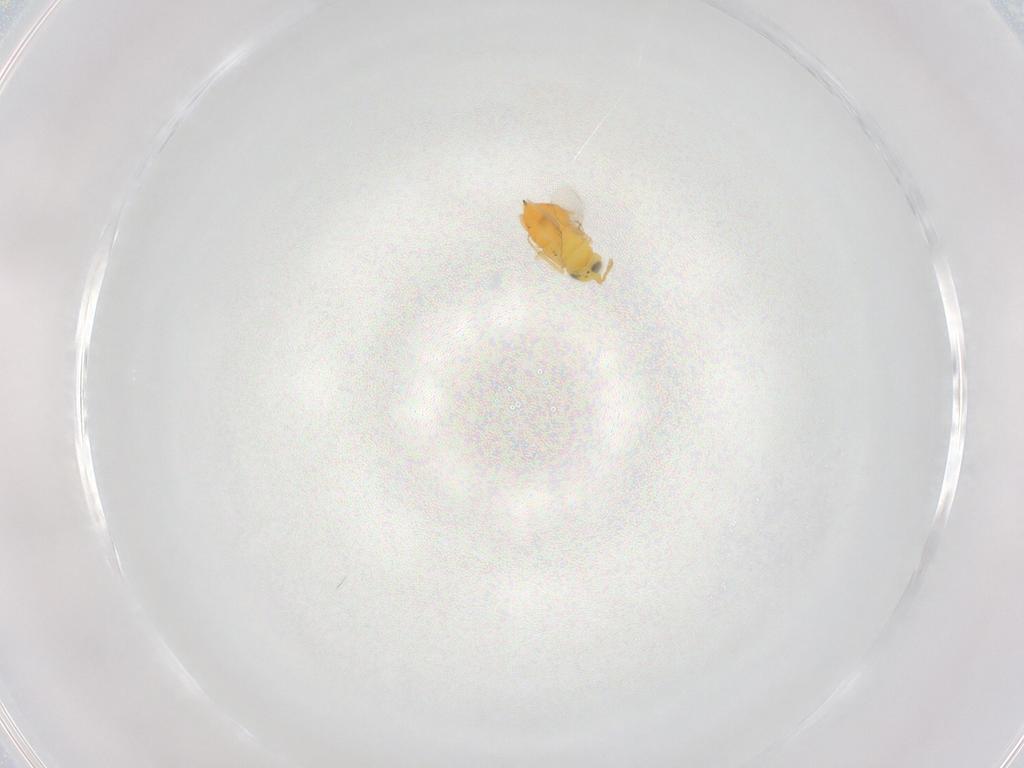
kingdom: Animalia
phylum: Arthropoda
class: Insecta
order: Hymenoptera
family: Encyrtidae
